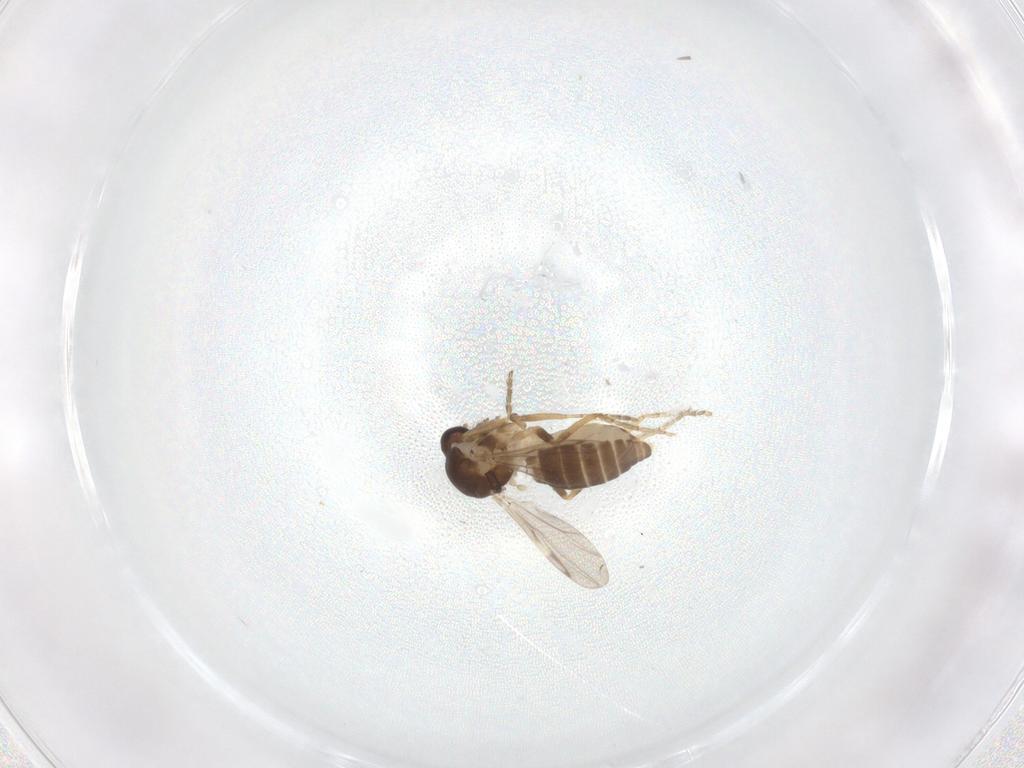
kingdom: Animalia
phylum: Arthropoda
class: Insecta
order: Diptera
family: Ceratopogonidae
